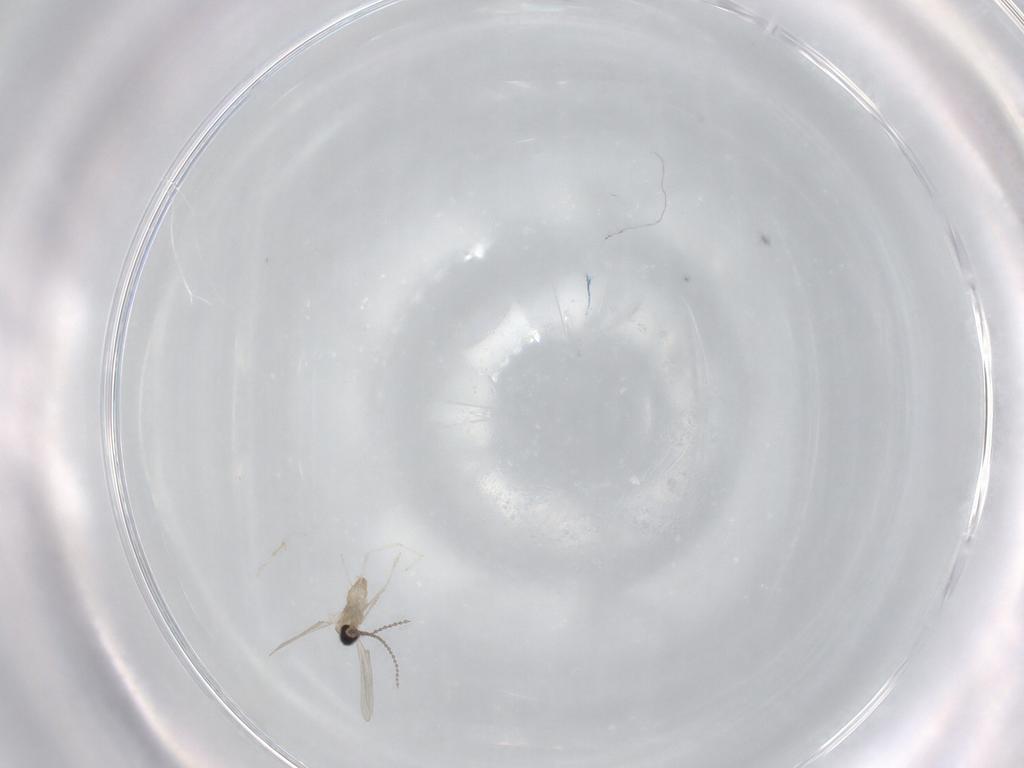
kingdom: Animalia
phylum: Arthropoda
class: Insecta
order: Diptera
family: Cecidomyiidae
